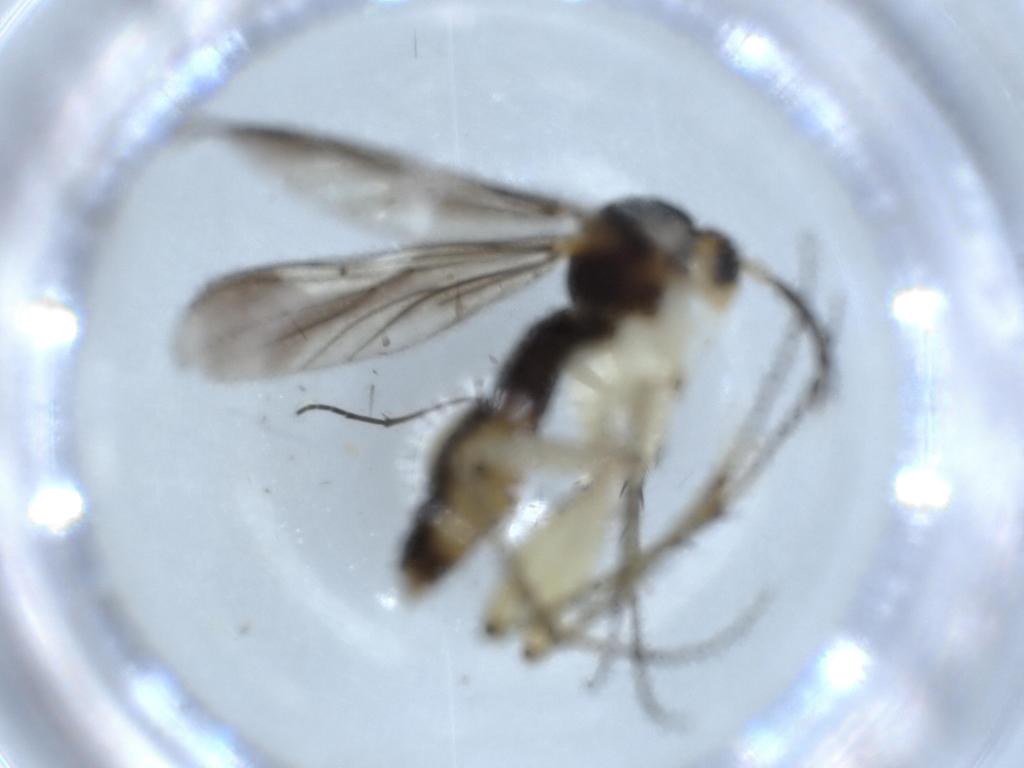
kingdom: Animalia
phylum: Arthropoda
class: Insecta
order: Diptera
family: Mycetophilidae
